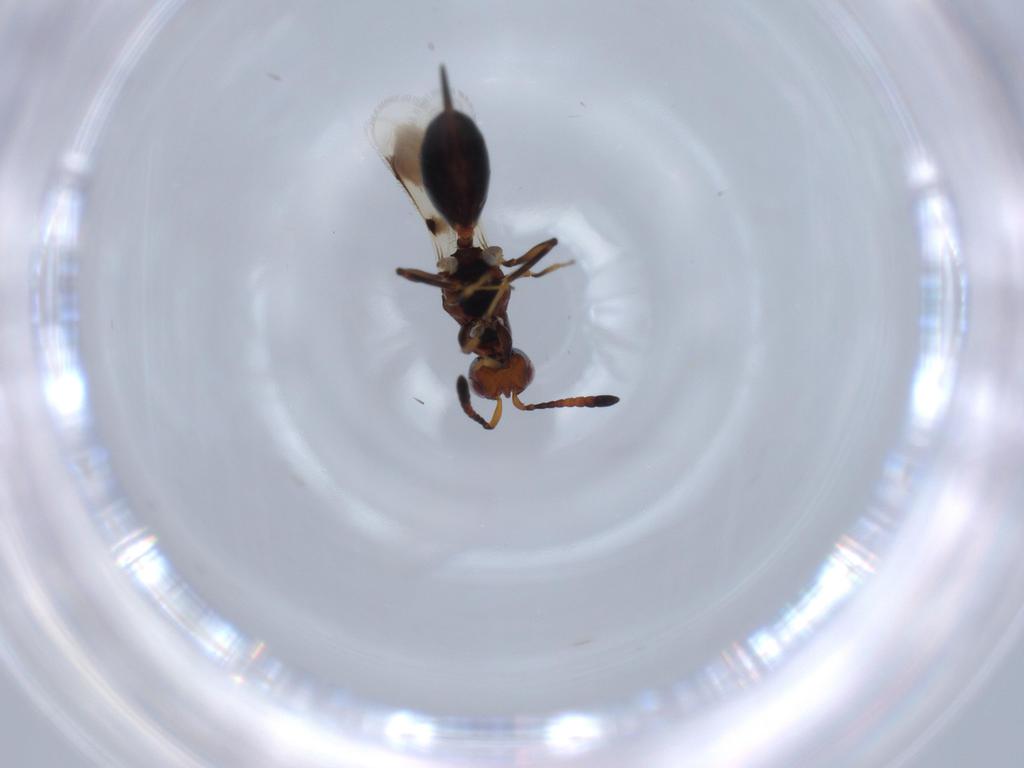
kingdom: Animalia
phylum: Arthropoda
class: Insecta
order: Hymenoptera
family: Cerocephalidae
